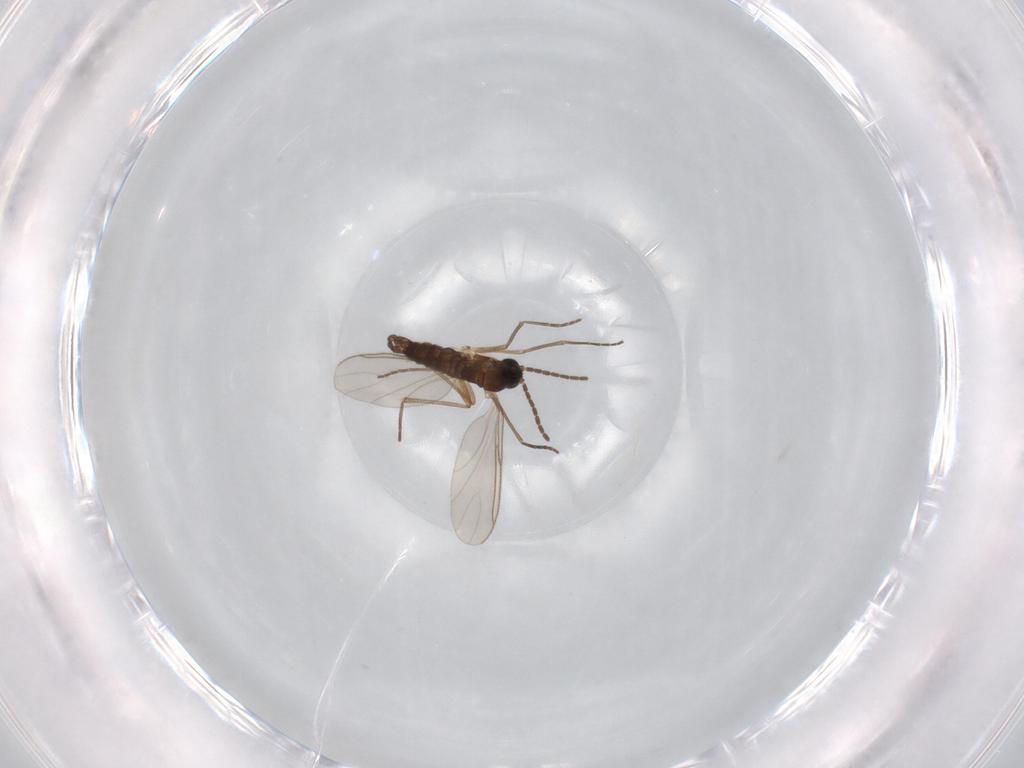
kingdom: Animalia
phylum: Arthropoda
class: Insecta
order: Diptera
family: Sciaridae
